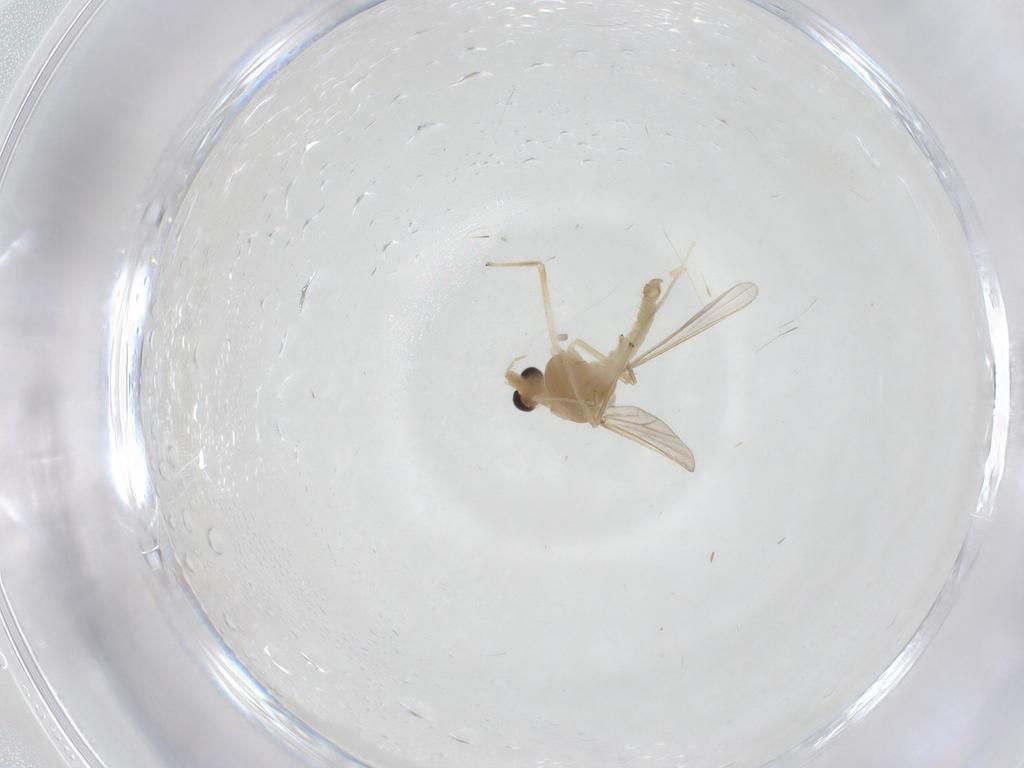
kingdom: Animalia
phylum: Arthropoda
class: Insecta
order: Diptera
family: Chironomidae
